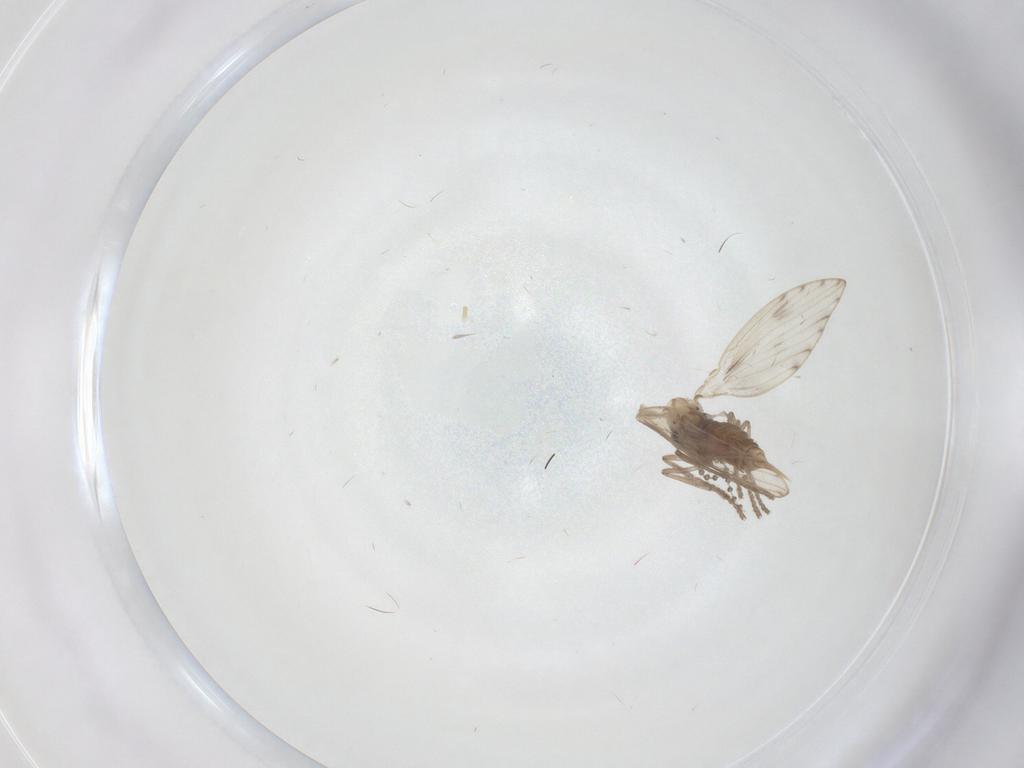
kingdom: Animalia
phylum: Arthropoda
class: Insecta
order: Diptera
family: Psychodidae
